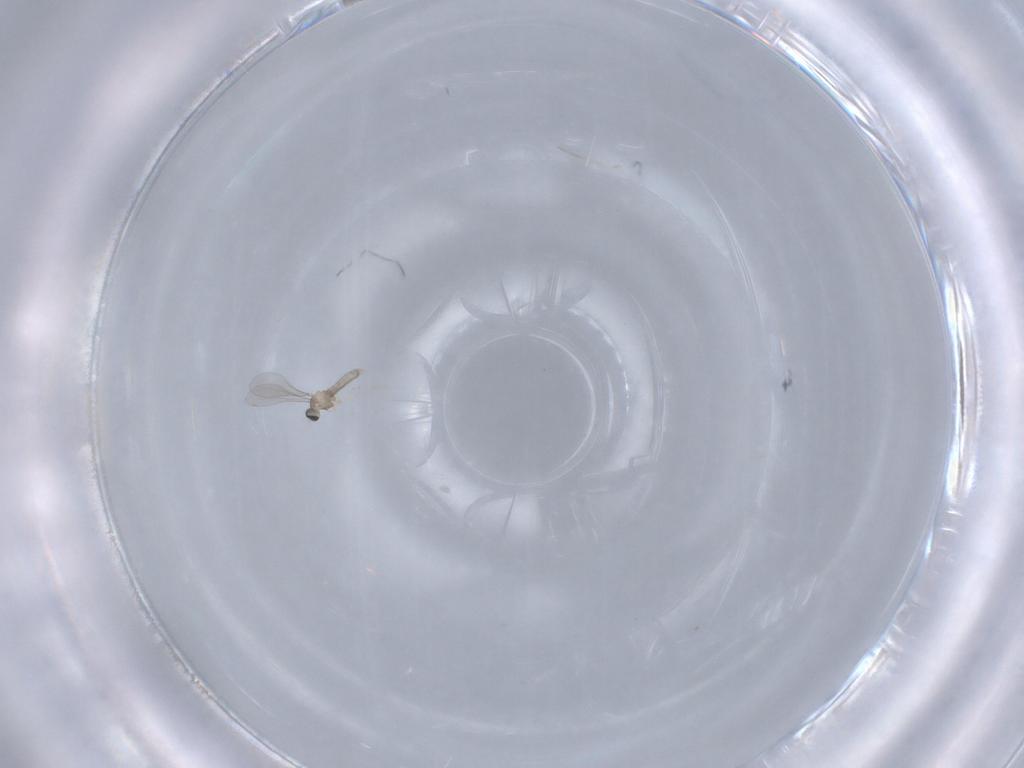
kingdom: Animalia
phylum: Arthropoda
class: Insecta
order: Diptera
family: Cecidomyiidae
